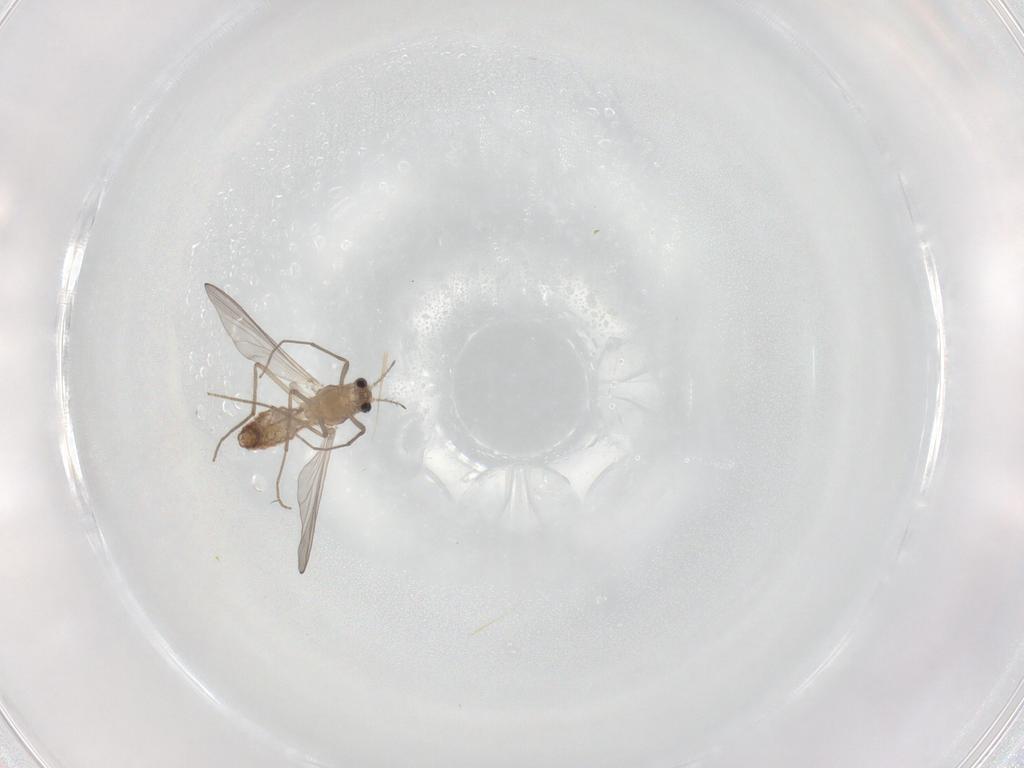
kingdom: Animalia
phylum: Arthropoda
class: Insecta
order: Diptera
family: Chironomidae
